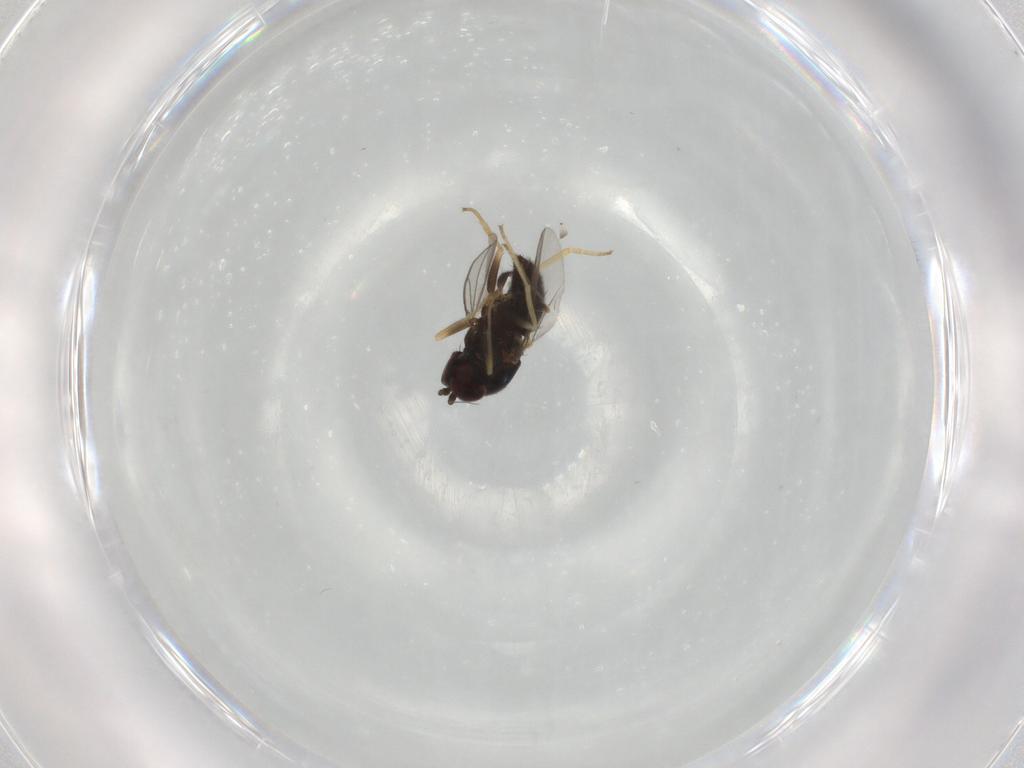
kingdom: Animalia
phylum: Arthropoda
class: Insecta
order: Diptera
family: Dolichopodidae
